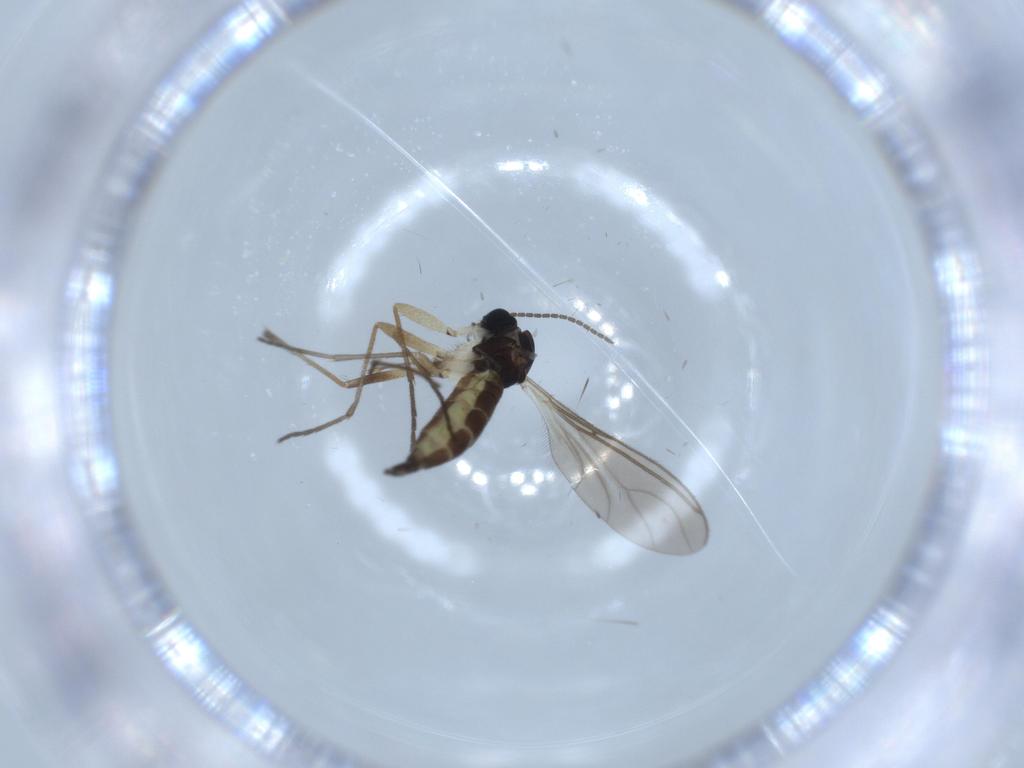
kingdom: Animalia
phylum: Arthropoda
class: Insecta
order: Diptera
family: Sciaridae
